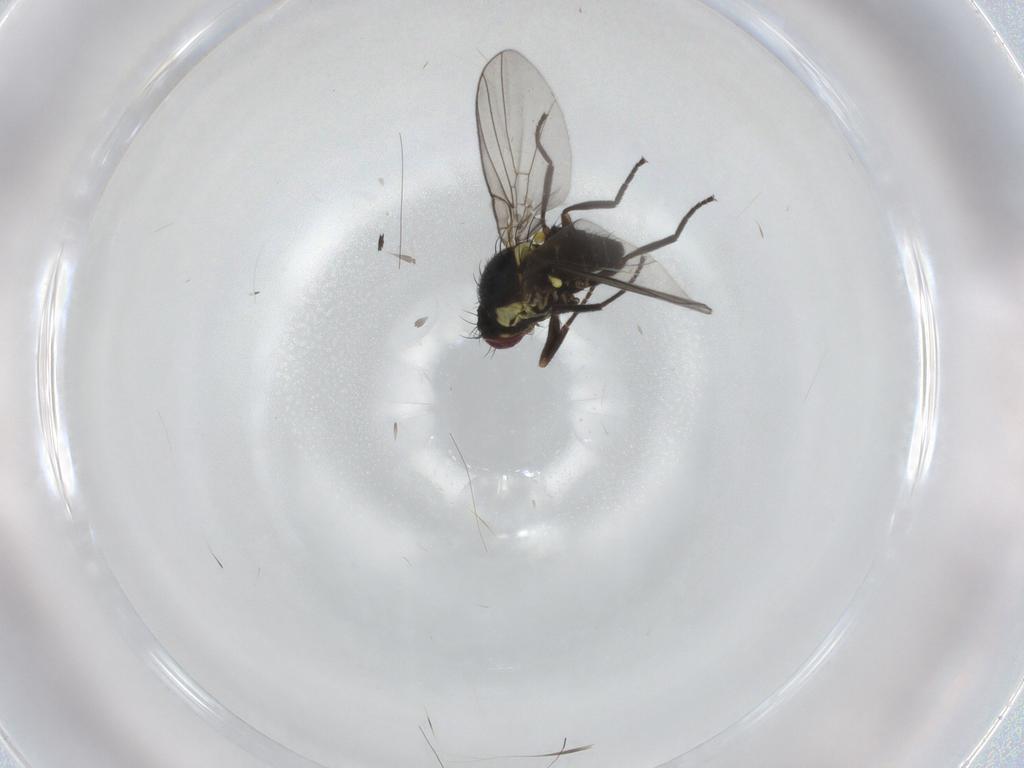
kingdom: Animalia
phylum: Arthropoda
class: Insecta
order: Diptera
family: Agromyzidae
